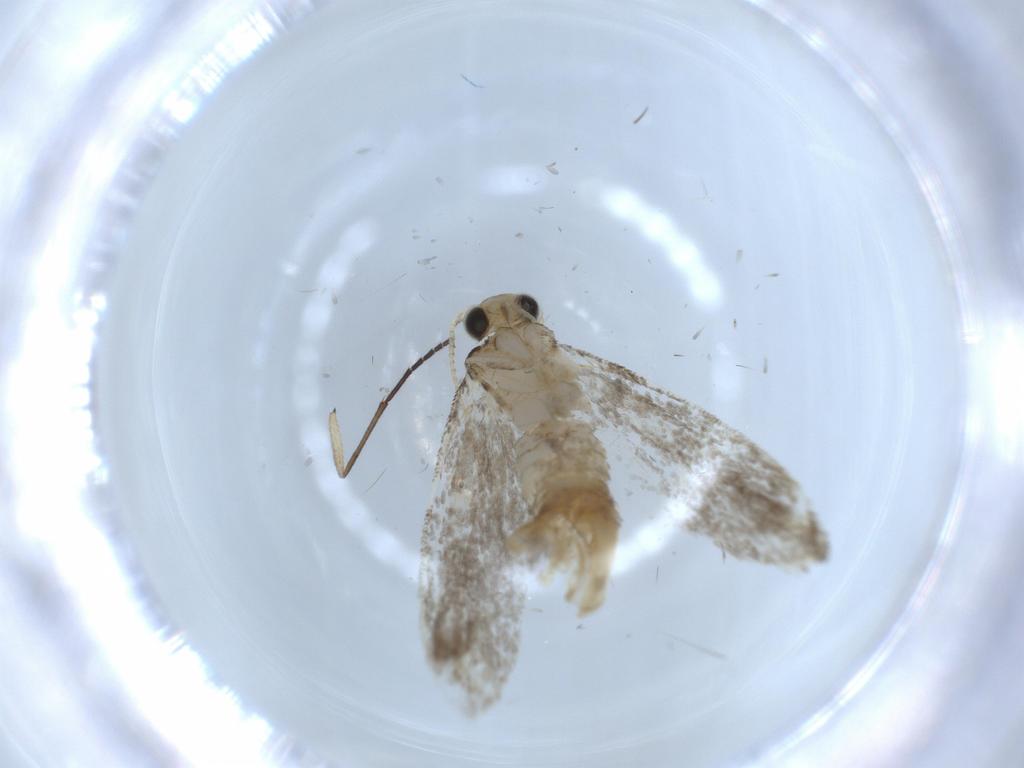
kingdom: Animalia
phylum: Arthropoda
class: Insecta
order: Lepidoptera
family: Tineidae
